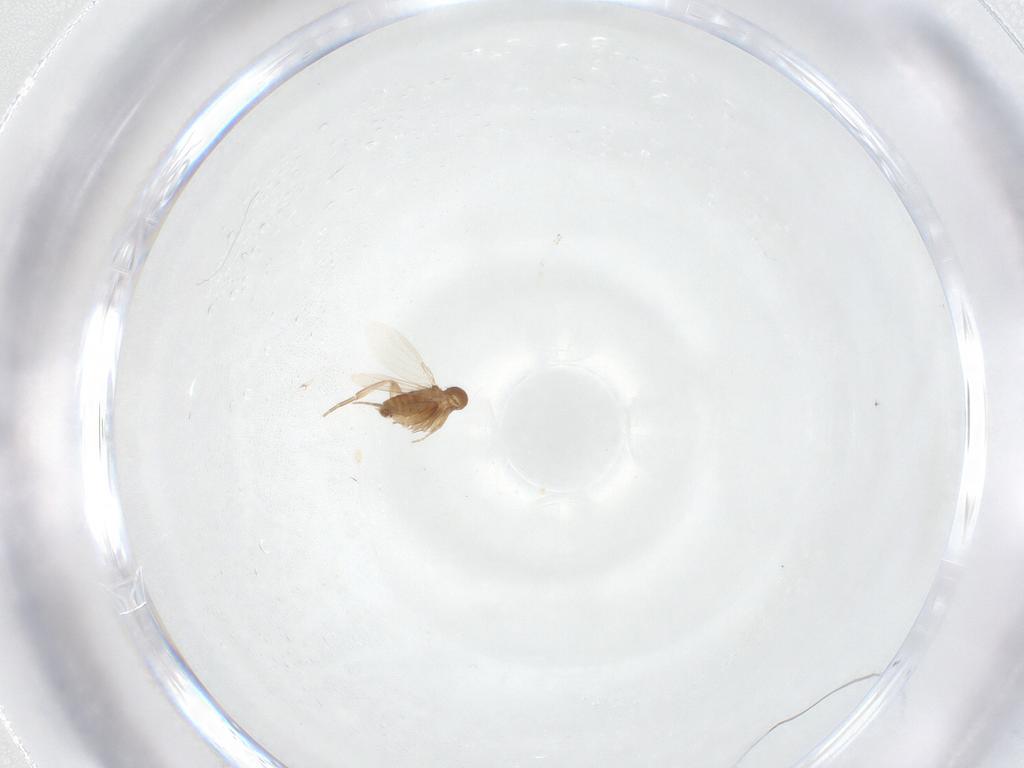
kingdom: Animalia
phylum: Arthropoda
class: Insecta
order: Diptera
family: Phoridae
